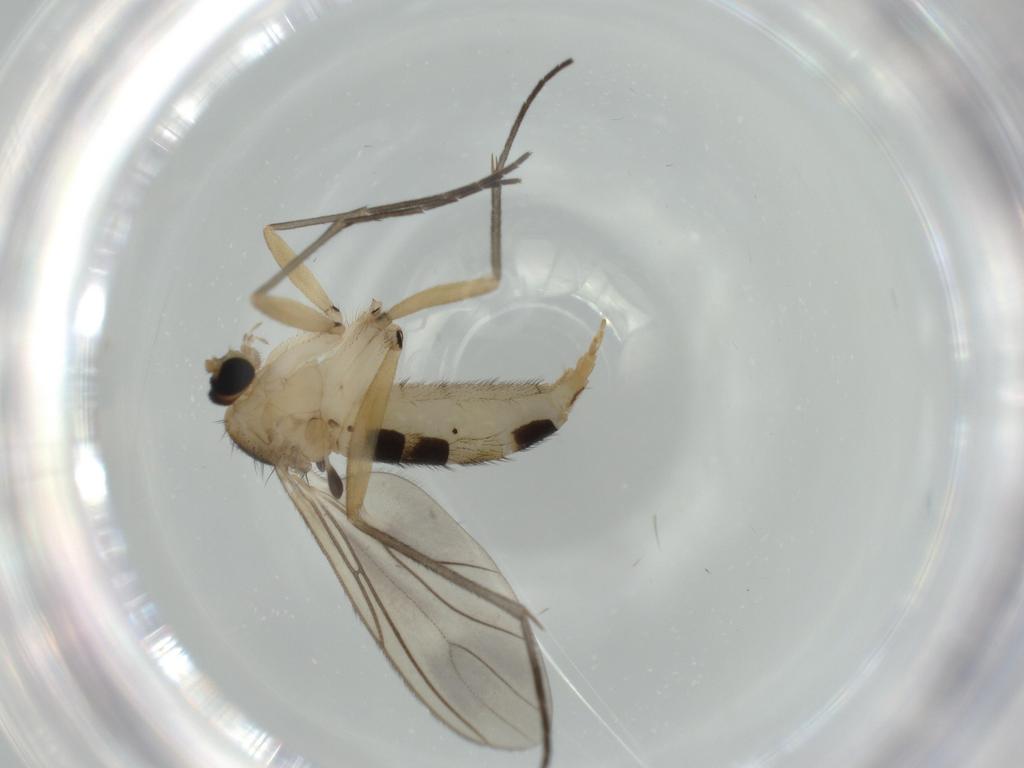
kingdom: Animalia
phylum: Arthropoda
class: Insecta
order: Diptera
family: Sciaridae
